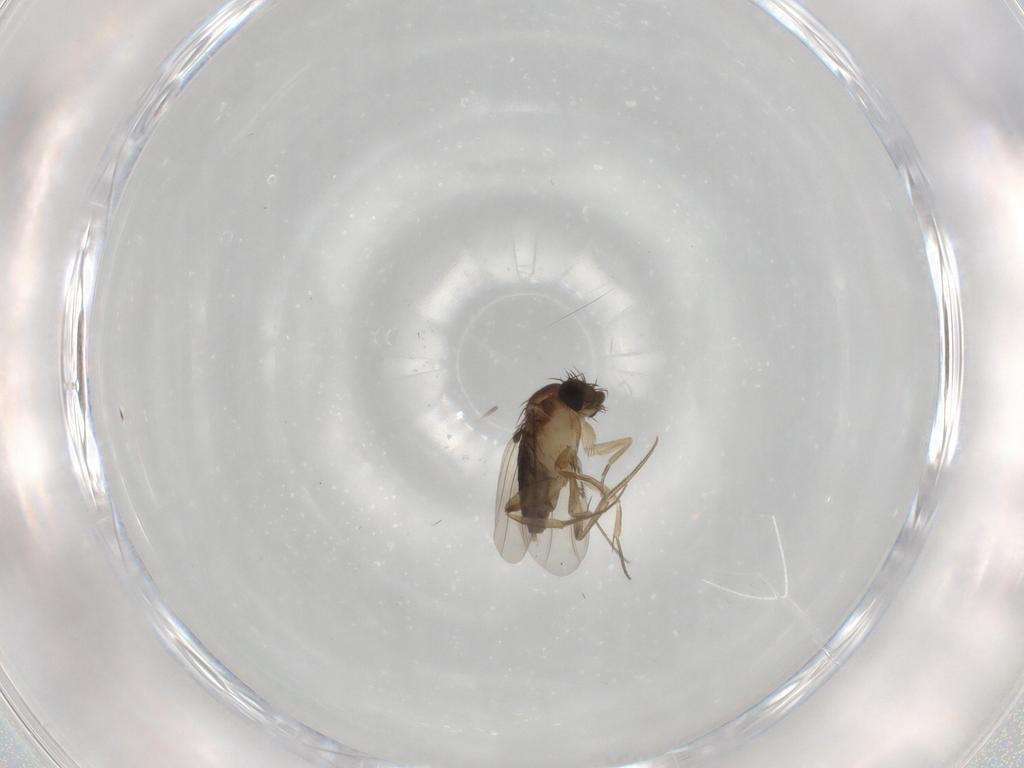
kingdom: Animalia
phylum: Arthropoda
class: Insecta
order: Diptera
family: Phoridae
